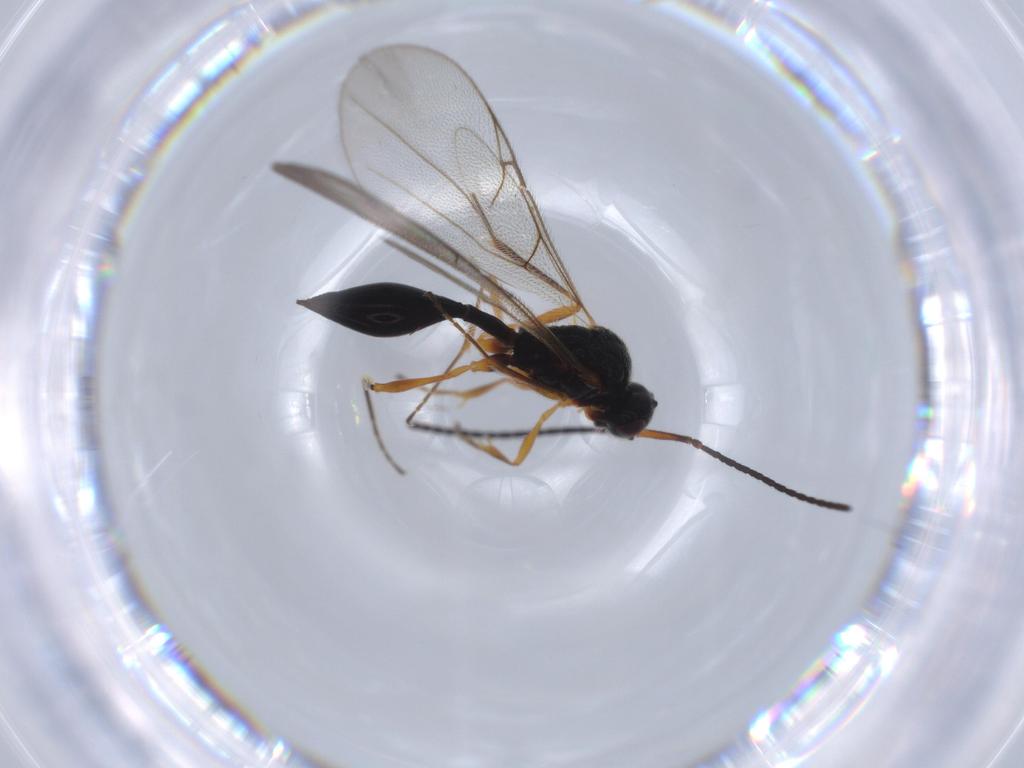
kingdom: Animalia
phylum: Arthropoda
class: Insecta
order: Hymenoptera
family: Ichneumonidae
